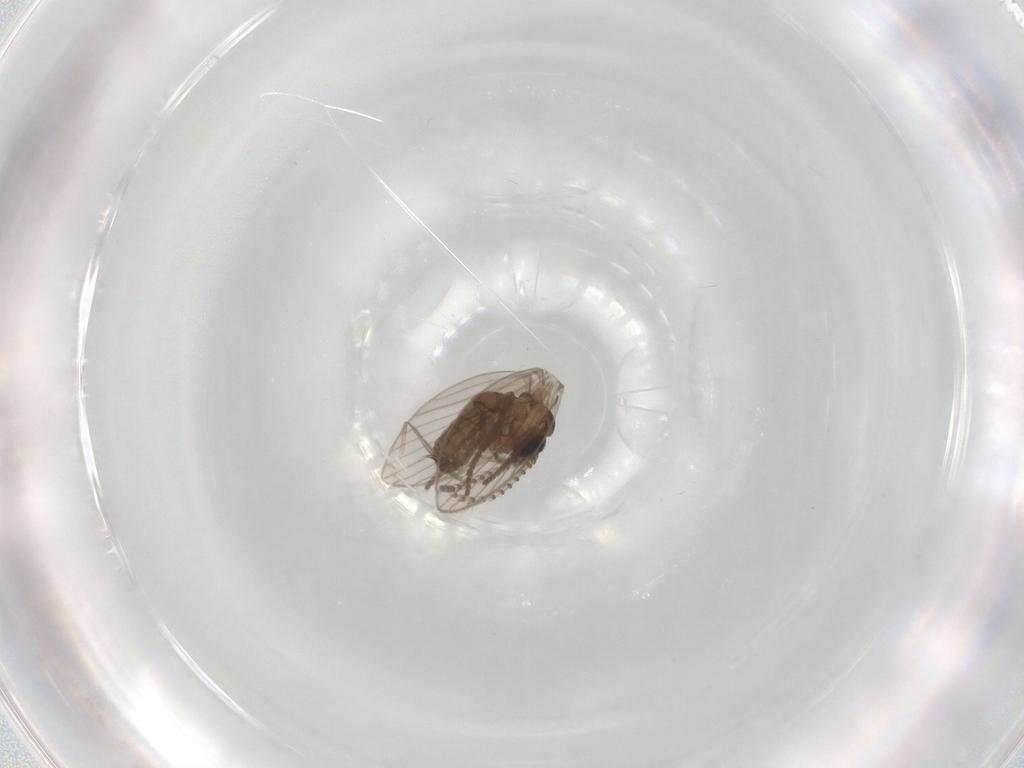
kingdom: Animalia
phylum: Arthropoda
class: Insecta
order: Diptera
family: Psychodidae
